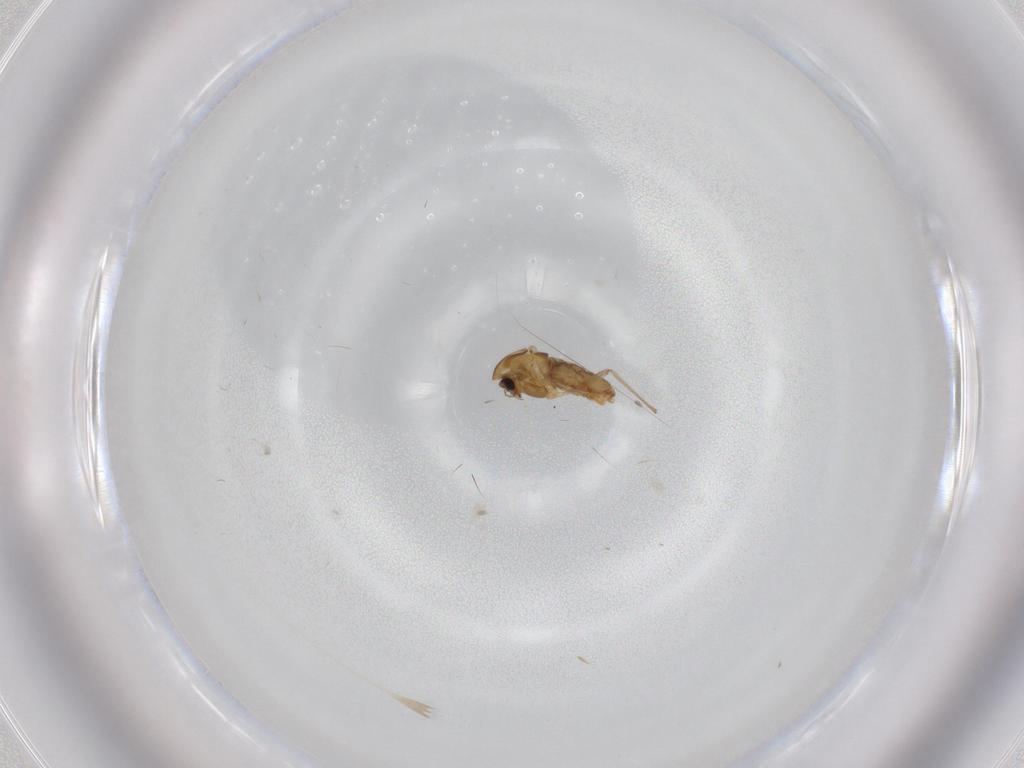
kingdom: Animalia
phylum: Arthropoda
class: Insecta
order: Diptera
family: Chironomidae
